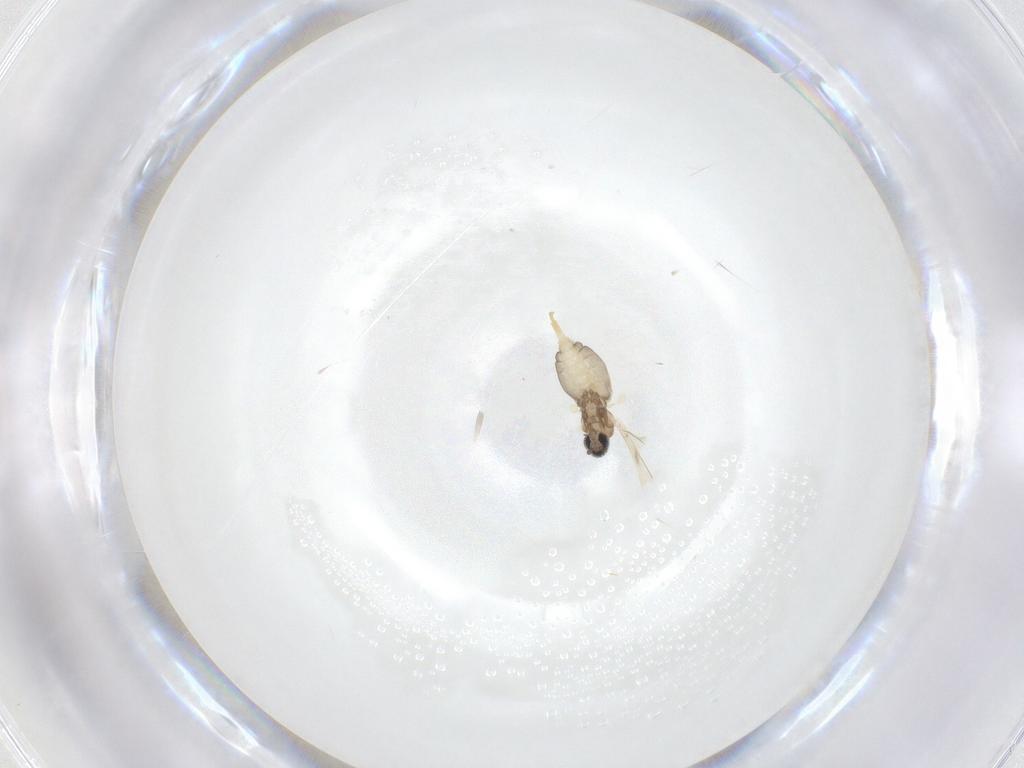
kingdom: Animalia
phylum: Arthropoda
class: Insecta
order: Diptera
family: Cecidomyiidae
